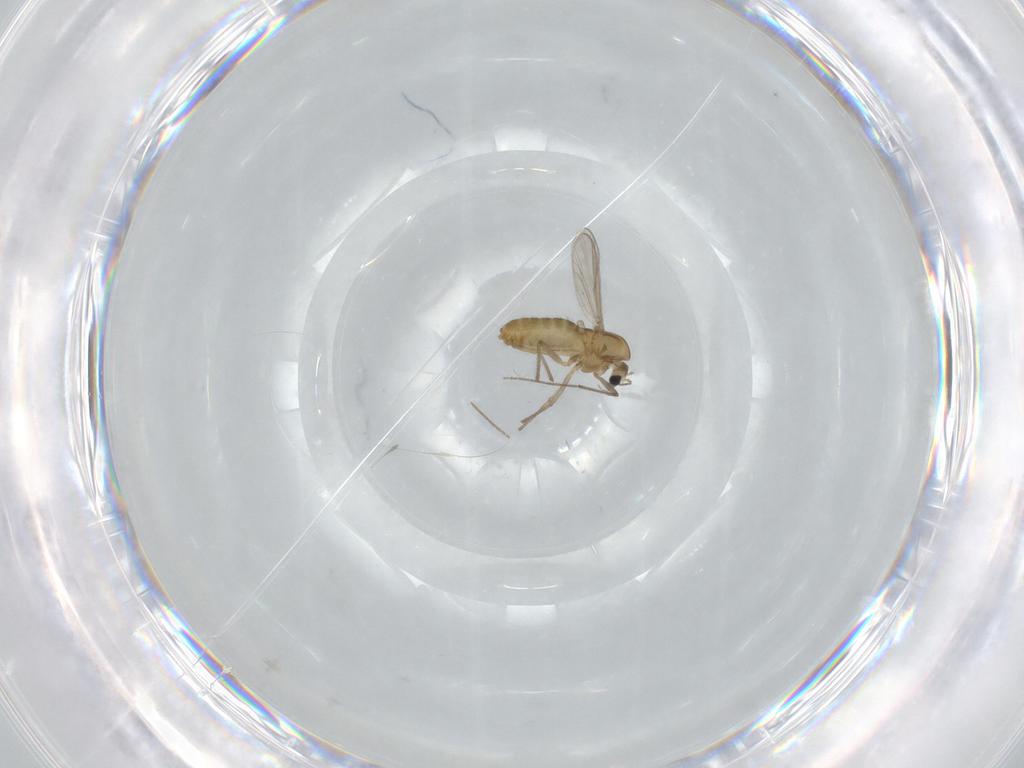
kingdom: Animalia
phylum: Arthropoda
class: Insecta
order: Diptera
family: Chironomidae
